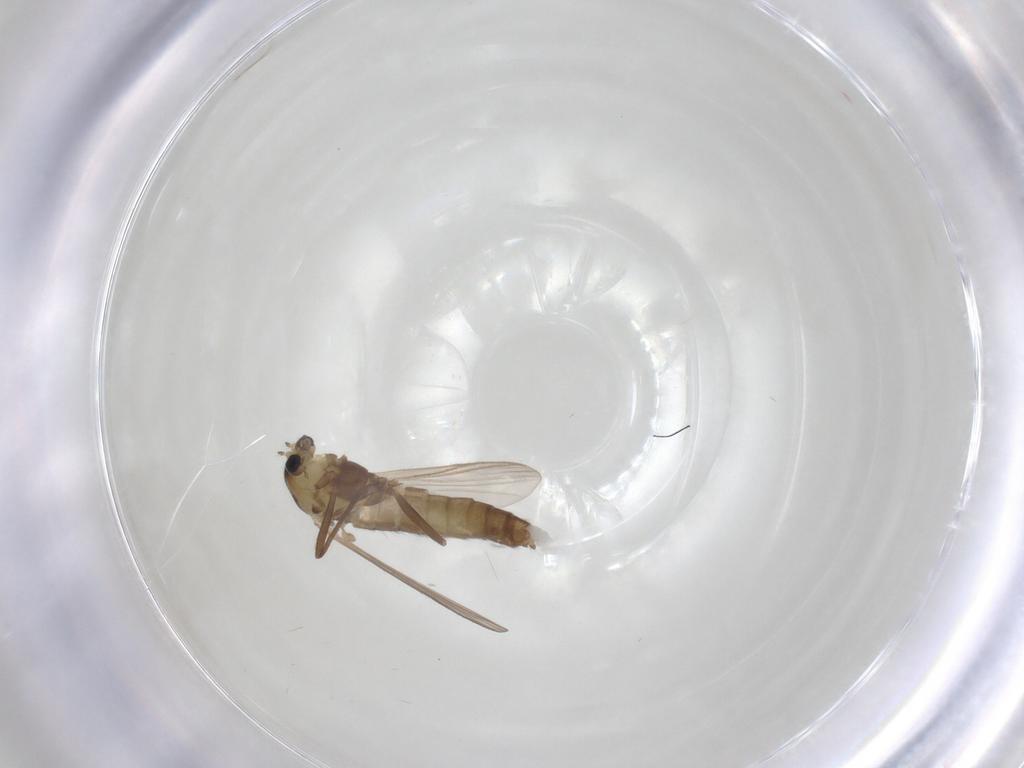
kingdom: Animalia
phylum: Arthropoda
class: Insecta
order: Diptera
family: Chironomidae
